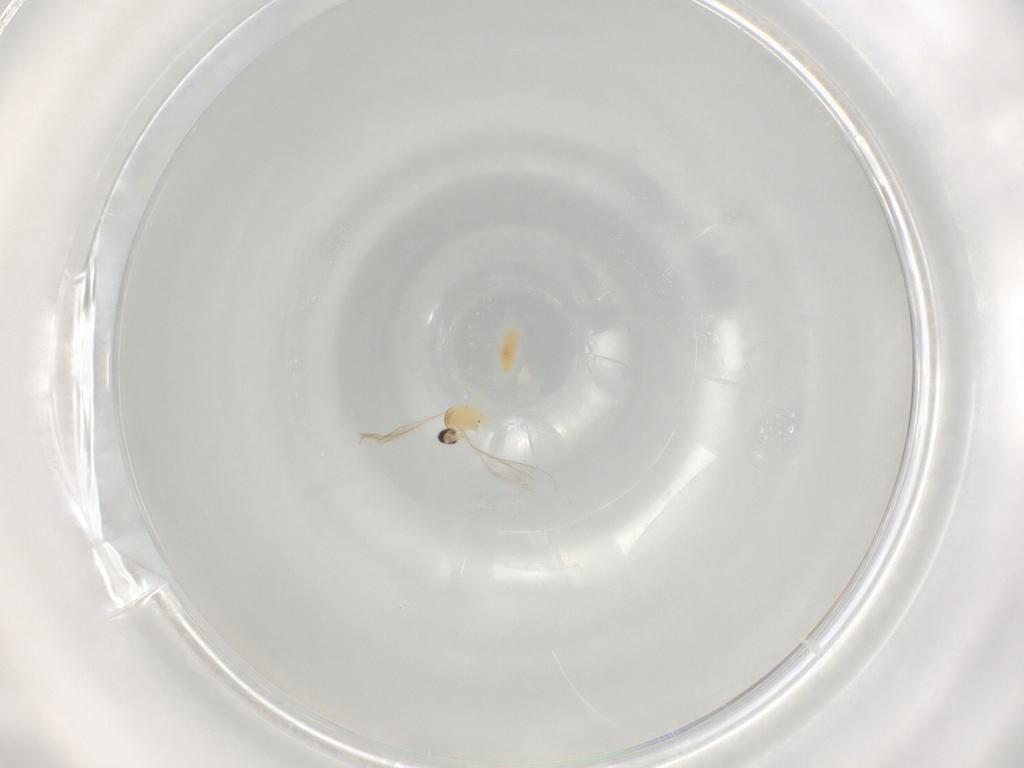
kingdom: Animalia
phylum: Arthropoda
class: Insecta
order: Diptera
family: Cecidomyiidae
